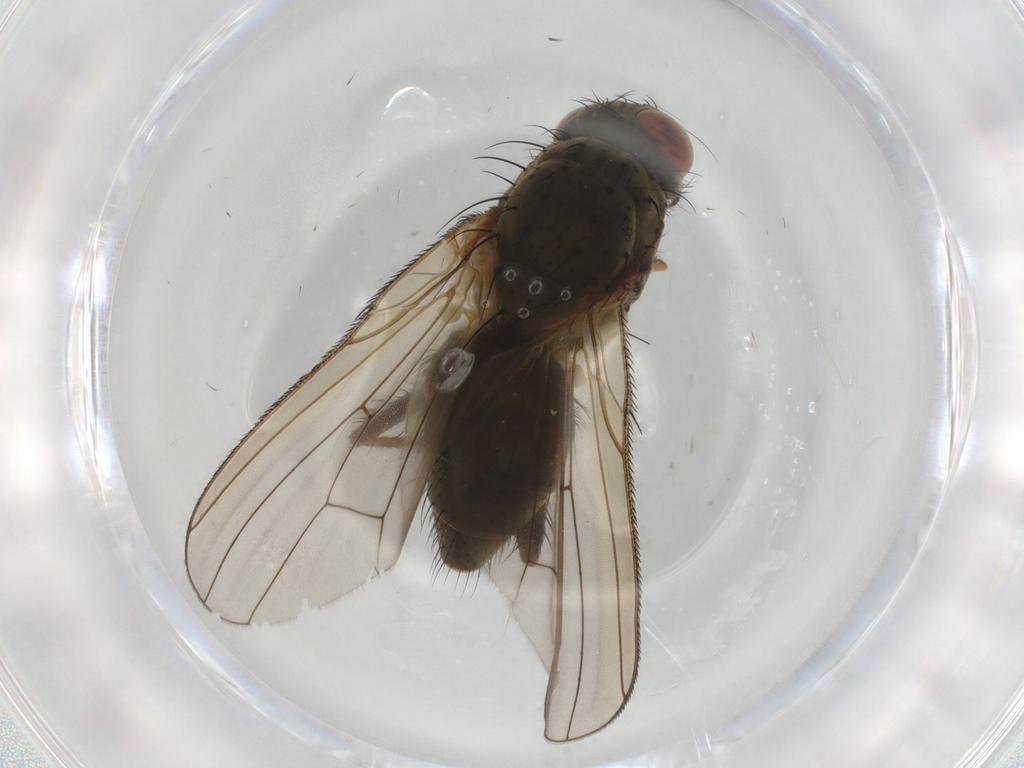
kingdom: Animalia
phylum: Arthropoda
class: Insecta
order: Diptera
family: Anthomyiidae
